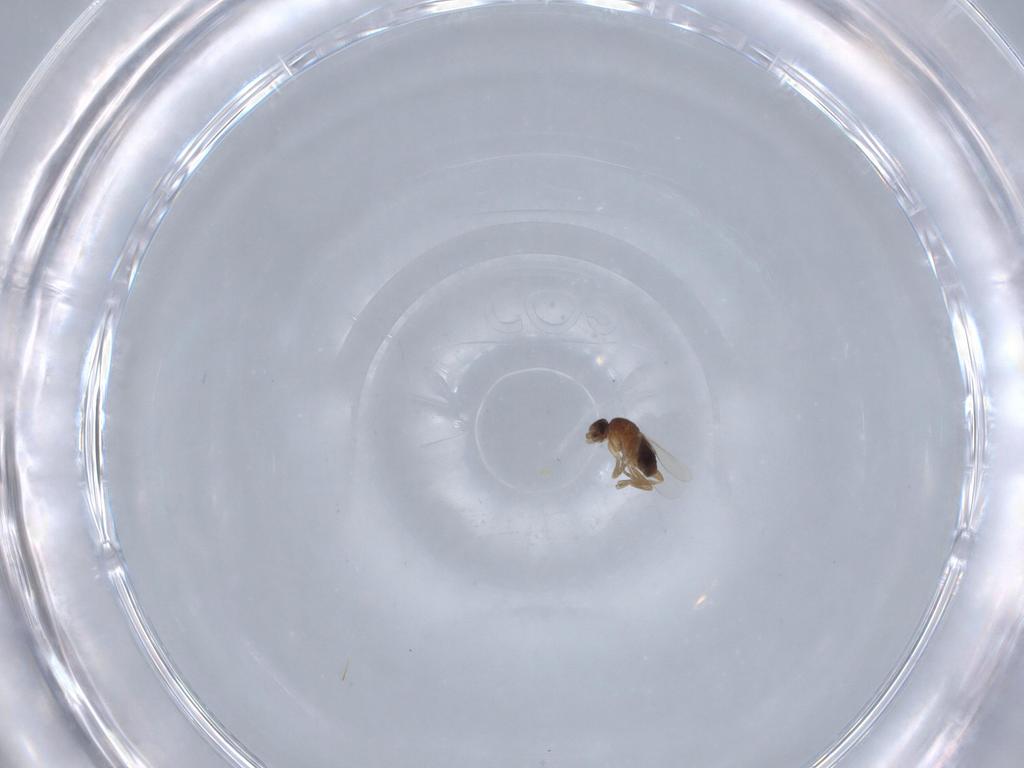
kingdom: Animalia
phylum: Arthropoda
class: Insecta
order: Diptera
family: Phoridae
